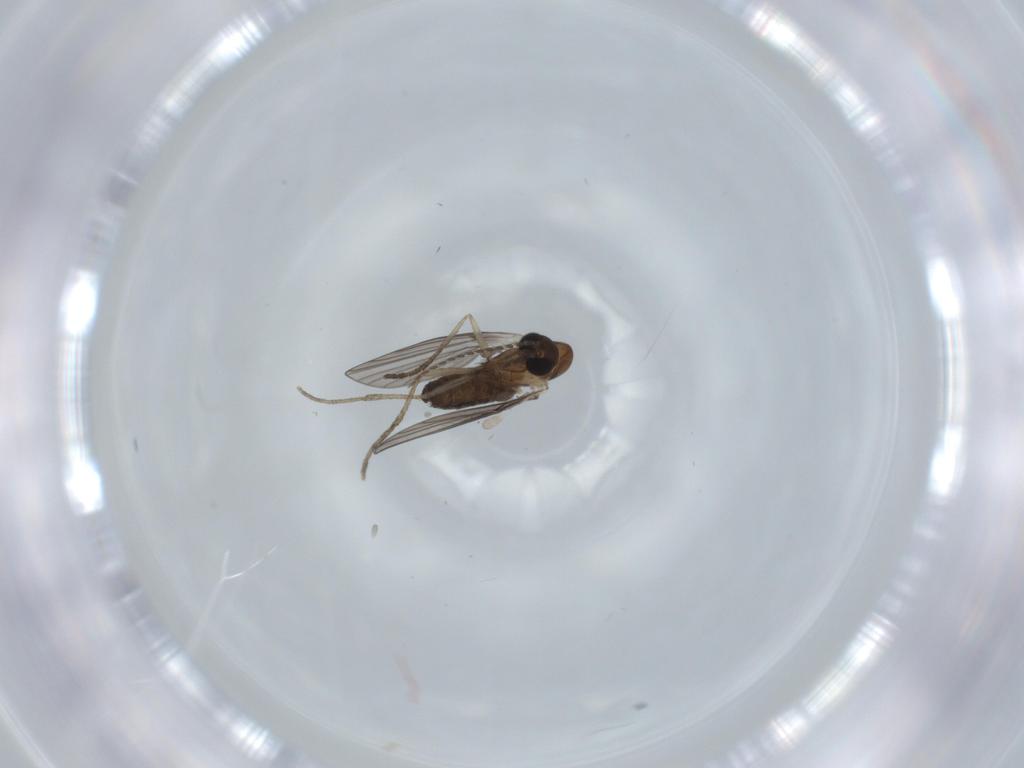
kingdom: Animalia
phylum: Arthropoda
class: Insecta
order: Diptera
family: Psychodidae
